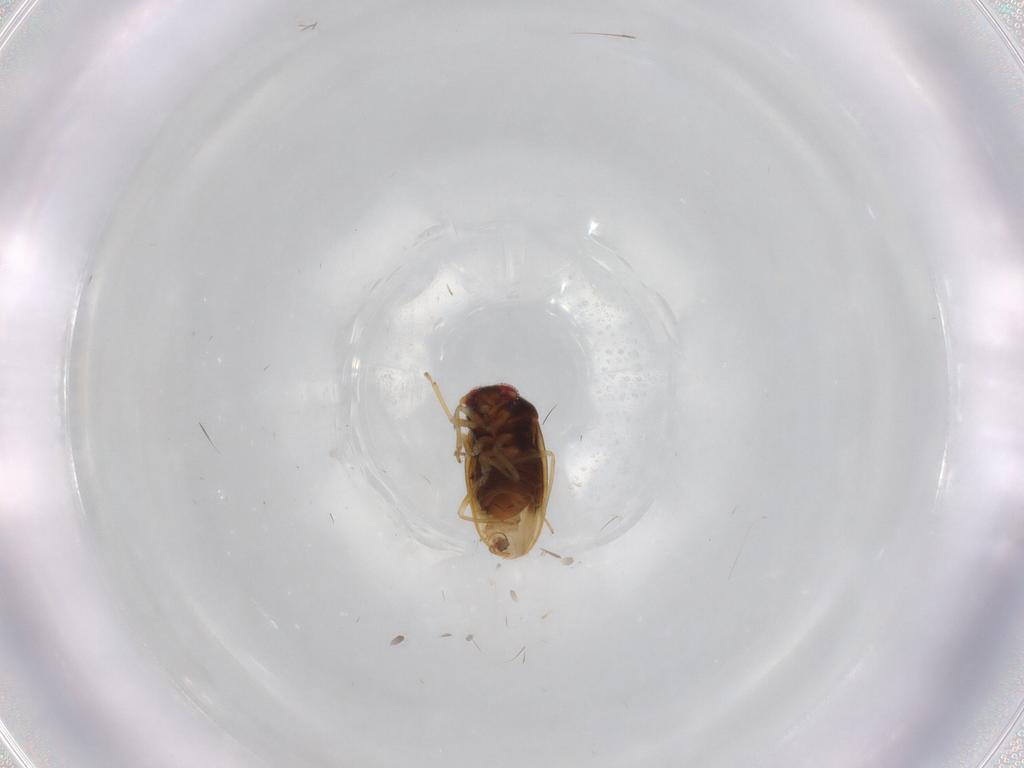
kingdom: Animalia
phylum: Arthropoda
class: Insecta
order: Hemiptera
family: Schizopteridae
